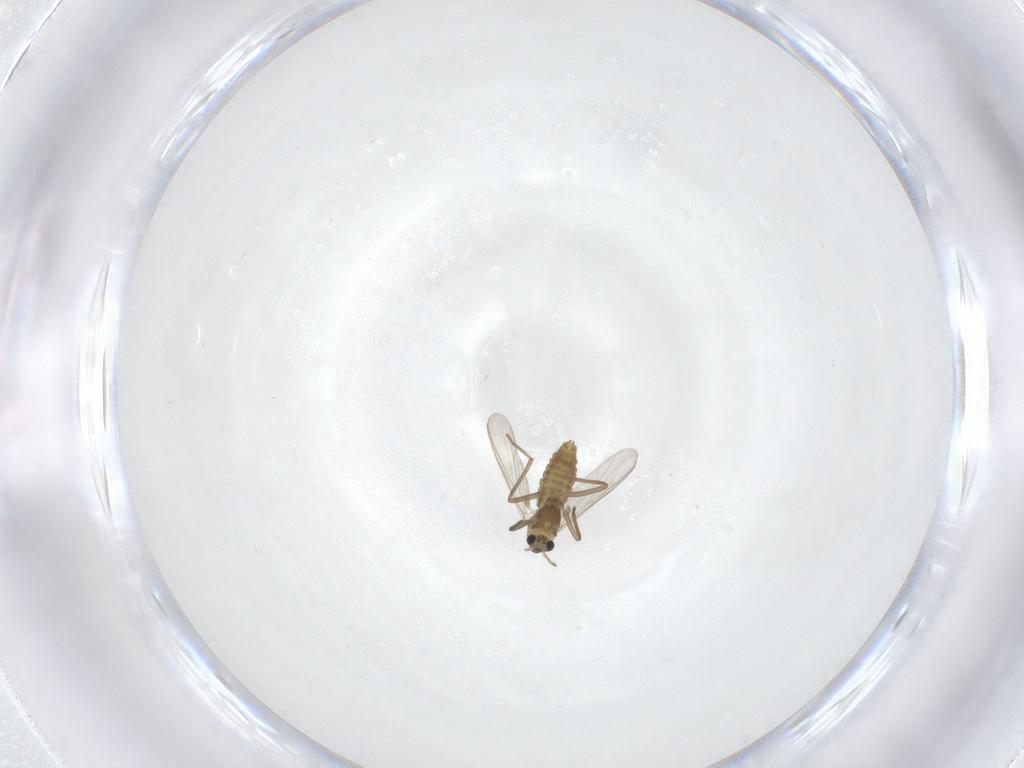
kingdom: Animalia
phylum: Arthropoda
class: Insecta
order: Diptera
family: Chironomidae
